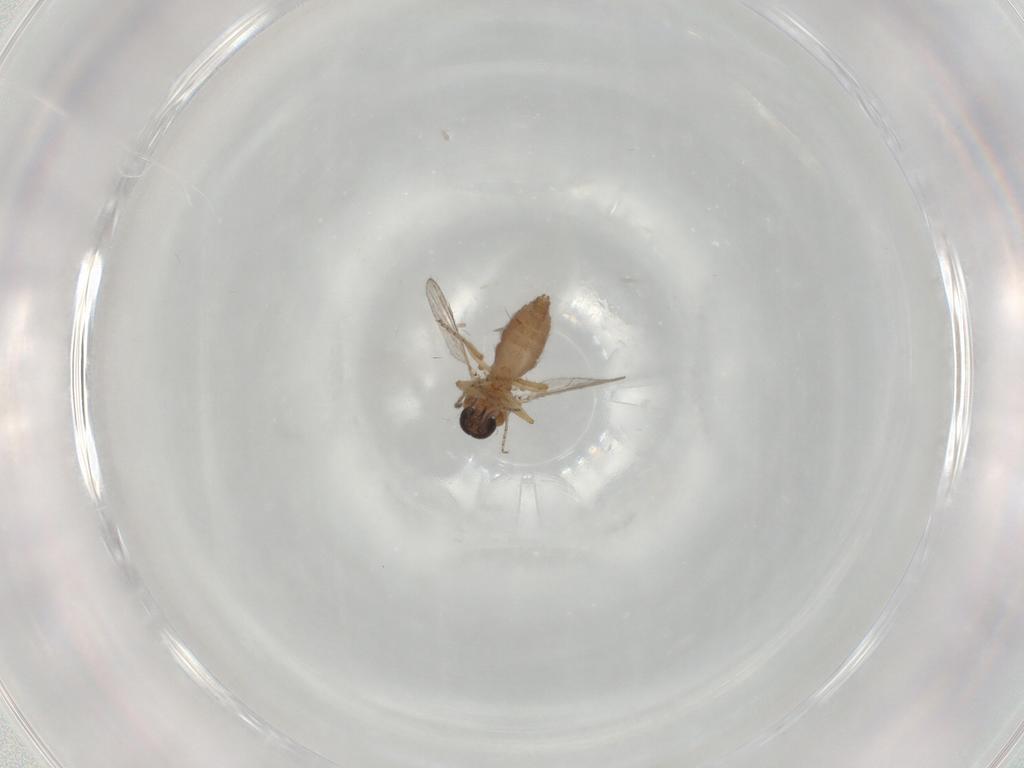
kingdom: Animalia
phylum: Arthropoda
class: Insecta
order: Diptera
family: Ceratopogonidae
